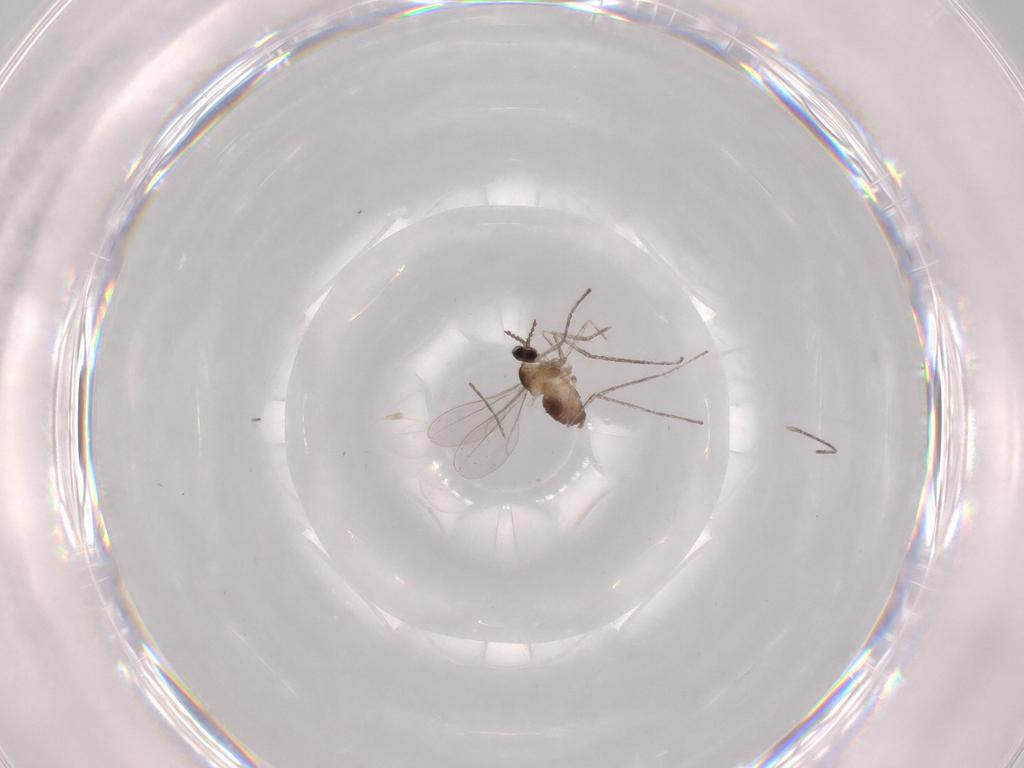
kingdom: Animalia
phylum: Arthropoda
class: Insecta
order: Diptera
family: Cecidomyiidae
